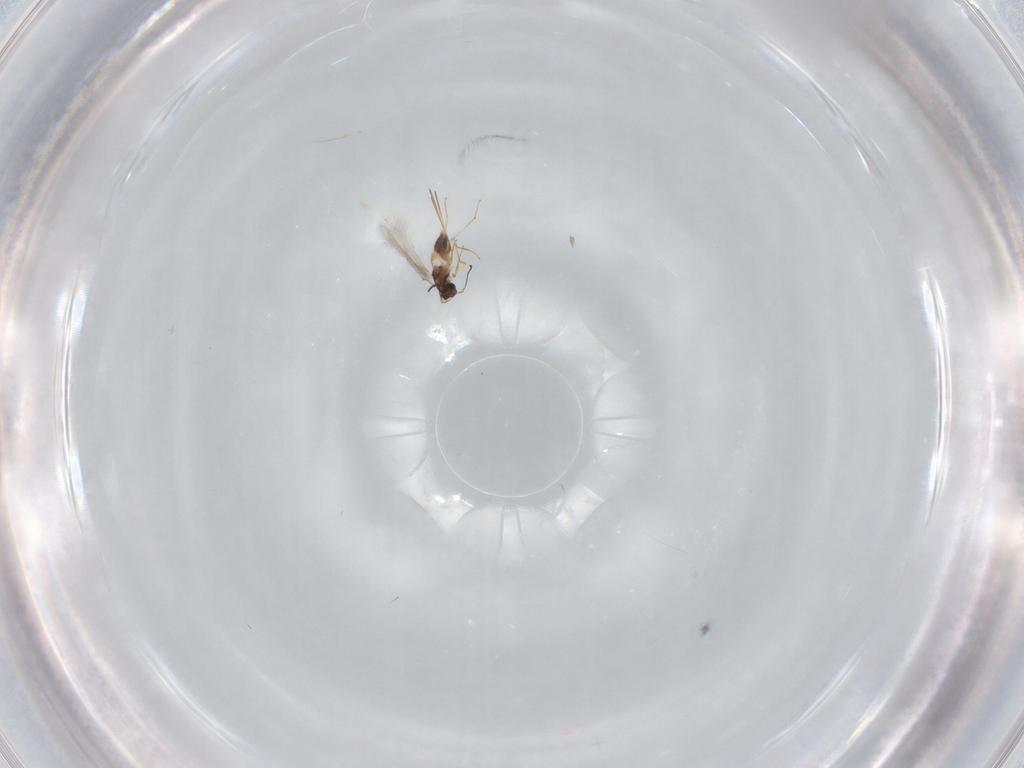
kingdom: Animalia
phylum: Arthropoda
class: Insecta
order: Hymenoptera
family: Mymaridae
